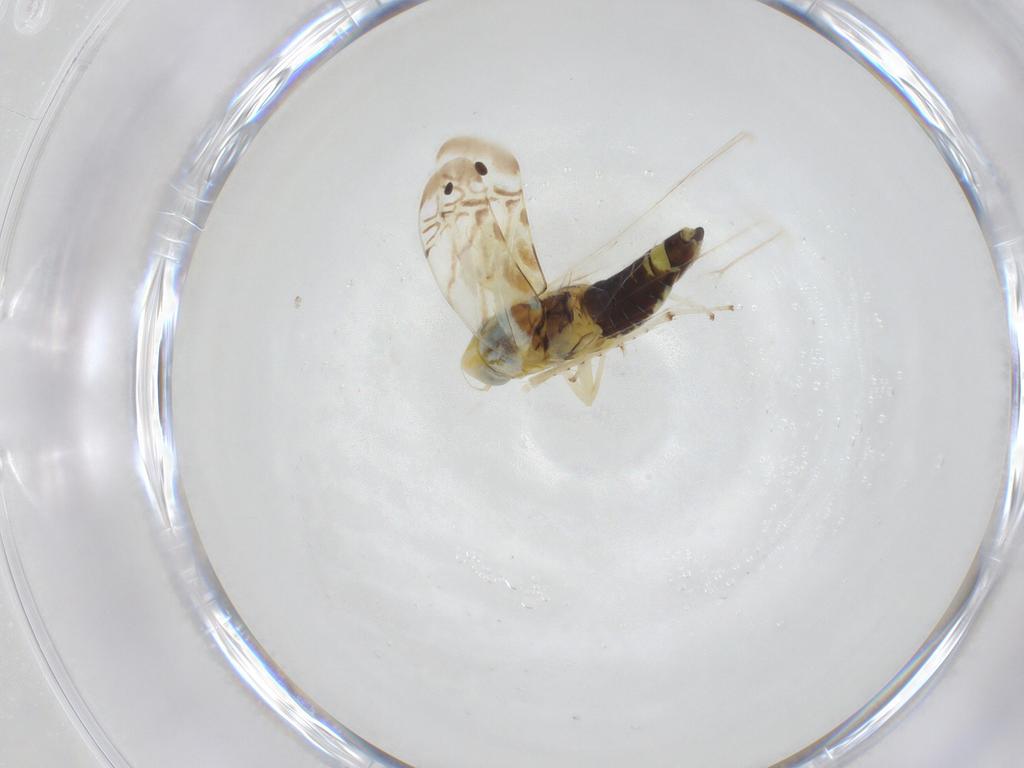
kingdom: Animalia
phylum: Arthropoda
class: Insecta
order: Hemiptera
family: Cicadellidae
